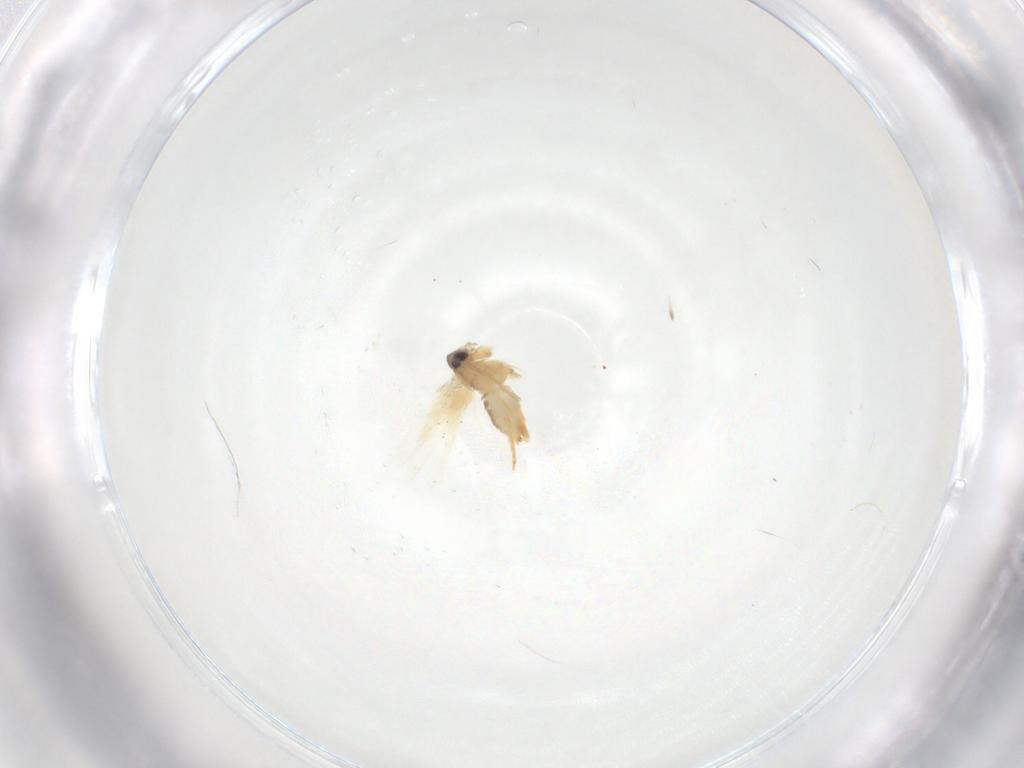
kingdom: Animalia
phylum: Arthropoda
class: Insecta
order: Lepidoptera
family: Crambidae
